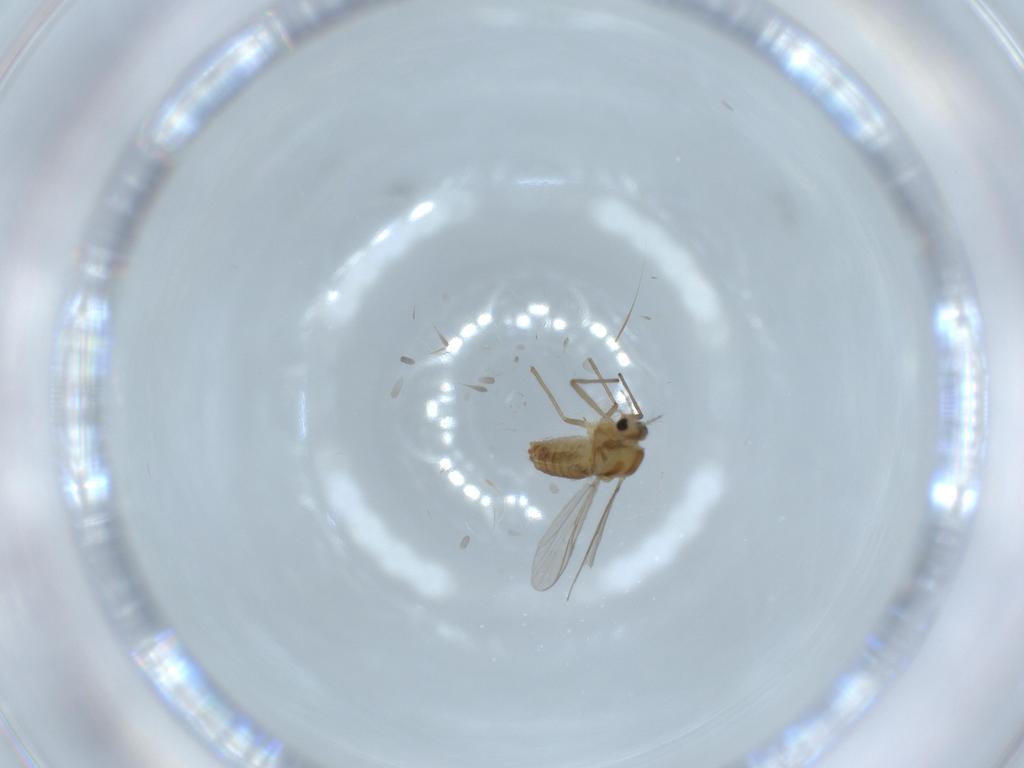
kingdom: Animalia
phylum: Arthropoda
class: Insecta
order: Diptera
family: Chironomidae
